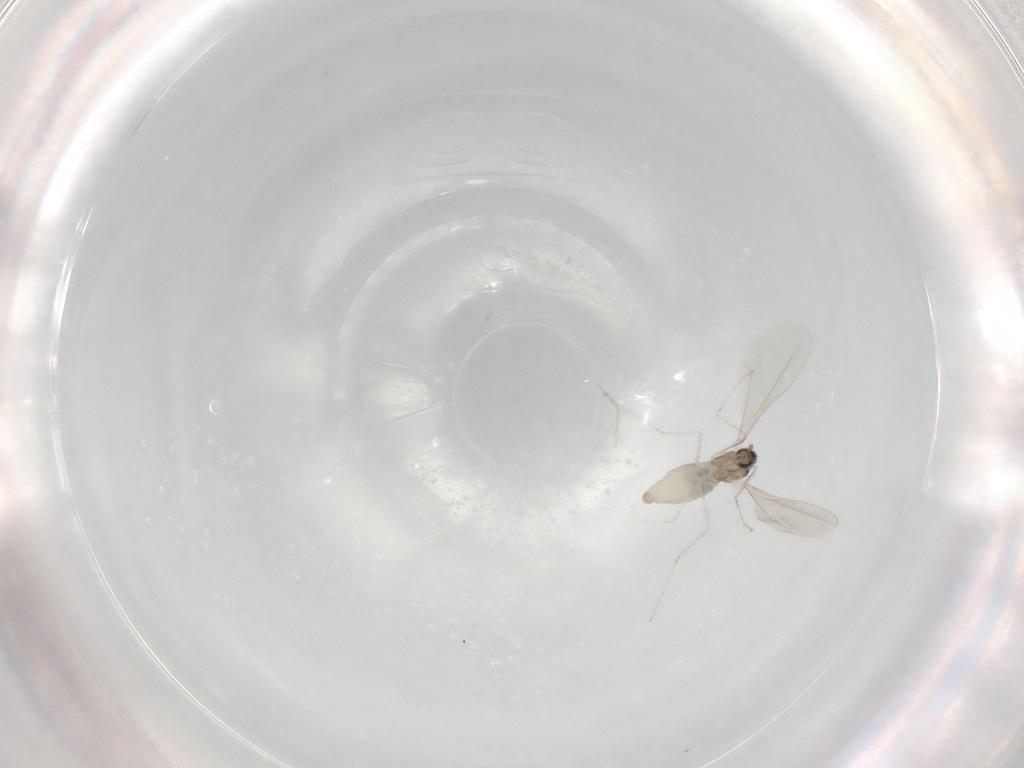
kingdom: Animalia
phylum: Arthropoda
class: Insecta
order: Diptera
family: Cecidomyiidae
